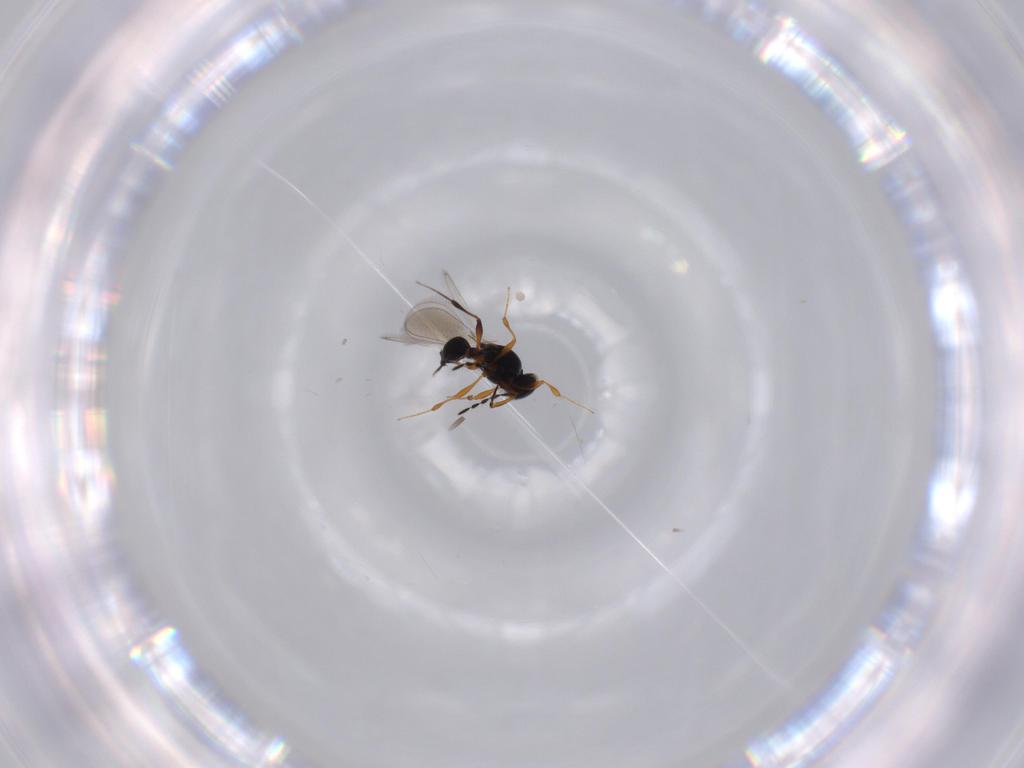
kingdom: Animalia
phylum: Arthropoda
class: Insecta
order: Hymenoptera
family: Platygastridae
